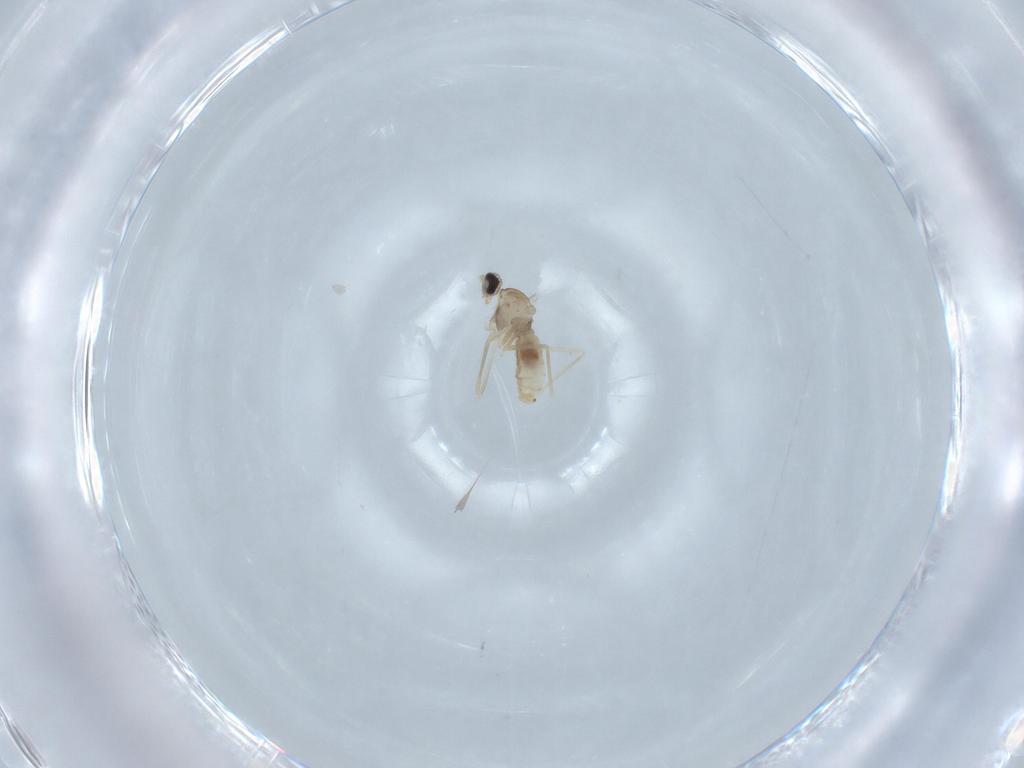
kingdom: Animalia
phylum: Arthropoda
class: Insecta
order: Diptera
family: Cecidomyiidae
